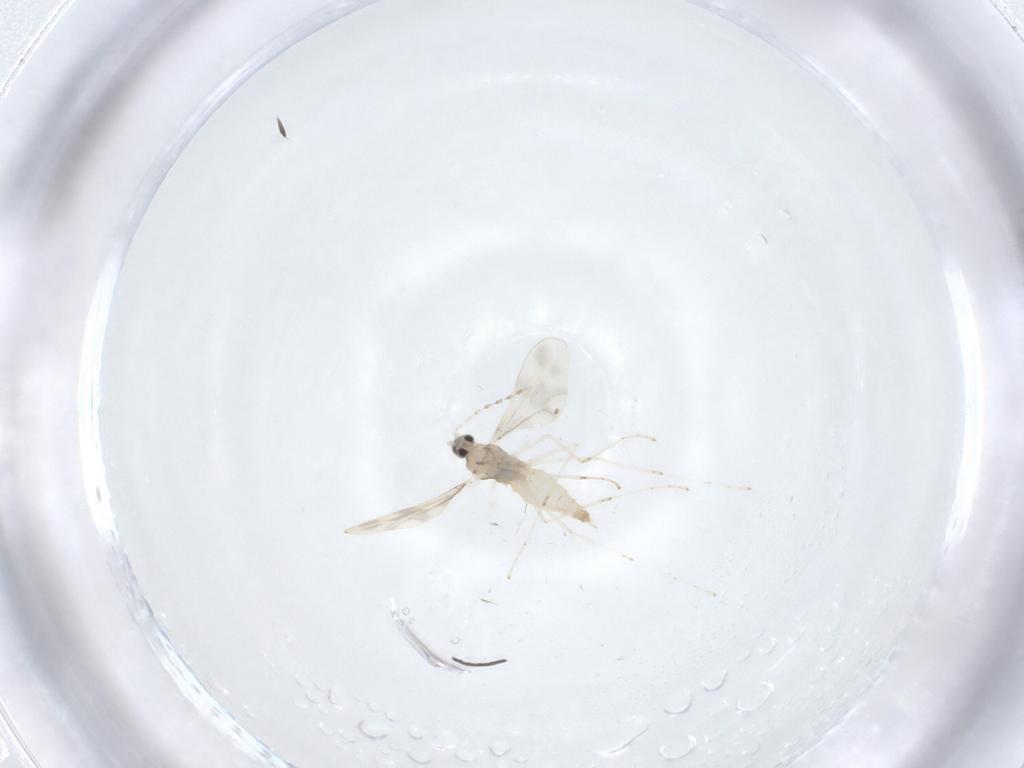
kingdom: Animalia
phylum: Arthropoda
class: Insecta
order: Diptera
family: Cecidomyiidae
